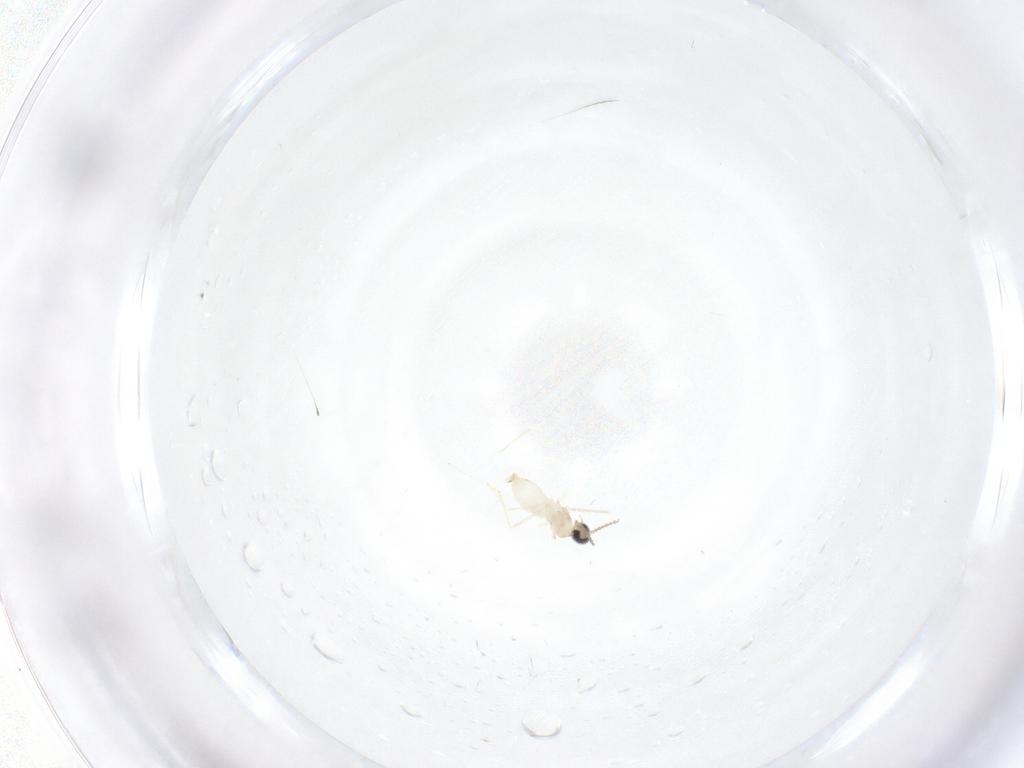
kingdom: Animalia
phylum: Arthropoda
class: Insecta
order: Diptera
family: Cecidomyiidae
